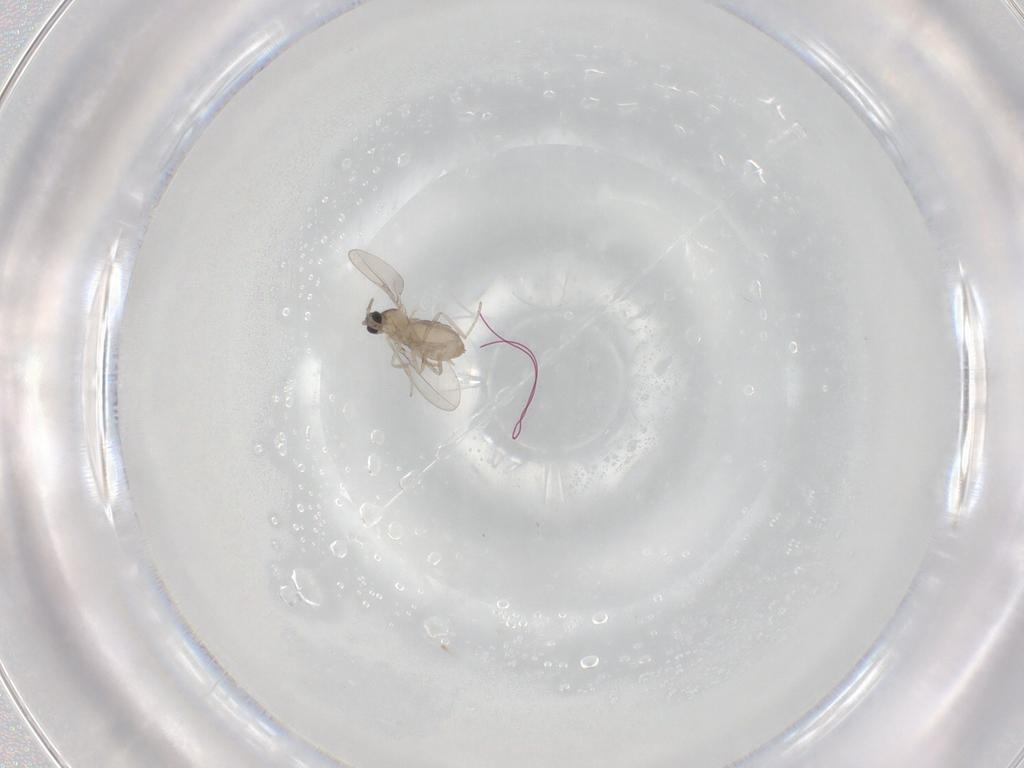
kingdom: Animalia
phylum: Arthropoda
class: Insecta
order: Diptera
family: Cecidomyiidae
